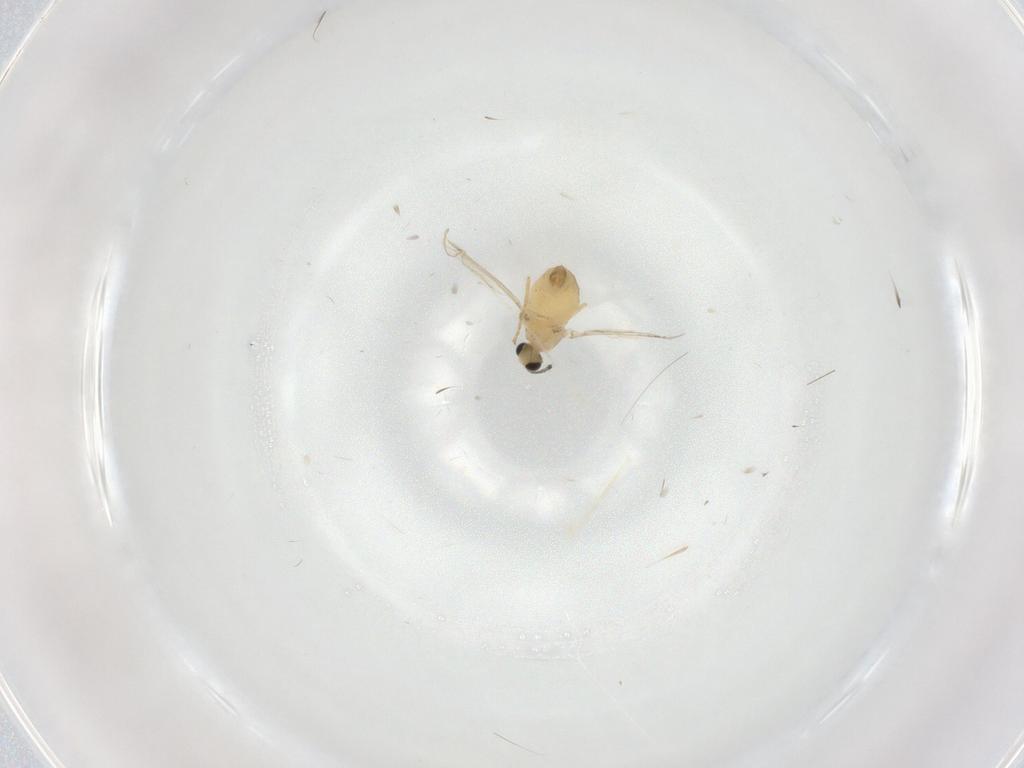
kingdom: Animalia
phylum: Arthropoda
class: Insecta
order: Diptera
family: Cecidomyiidae
